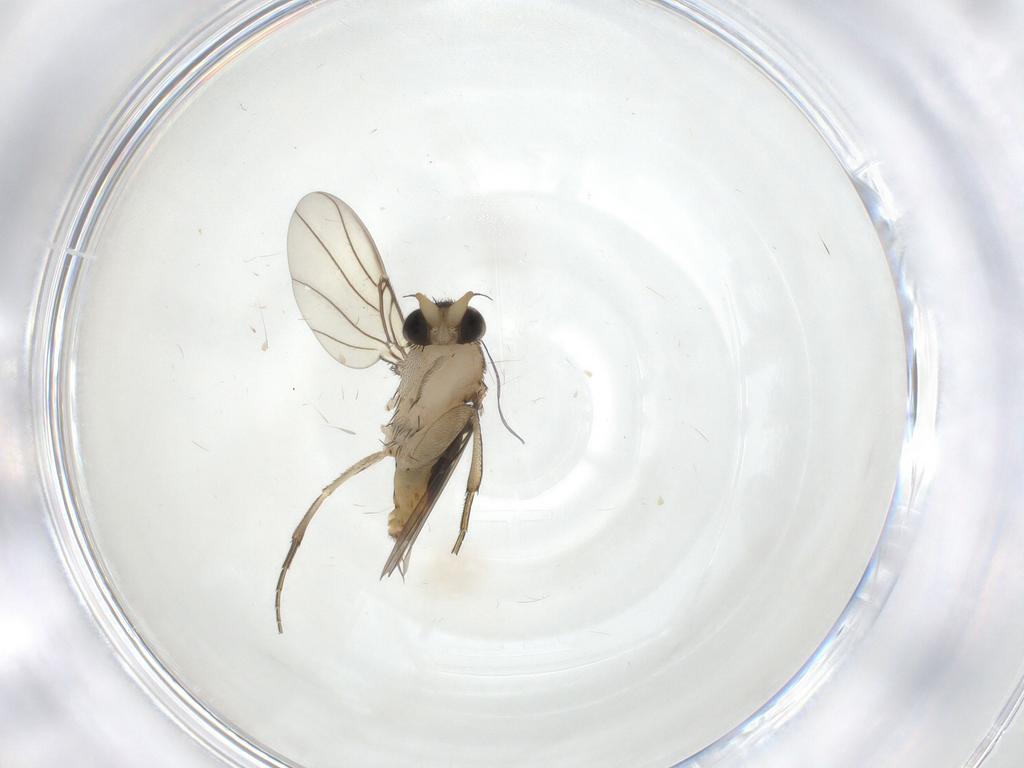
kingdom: Animalia
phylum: Arthropoda
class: Insecta
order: Diptera
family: Phoridae
